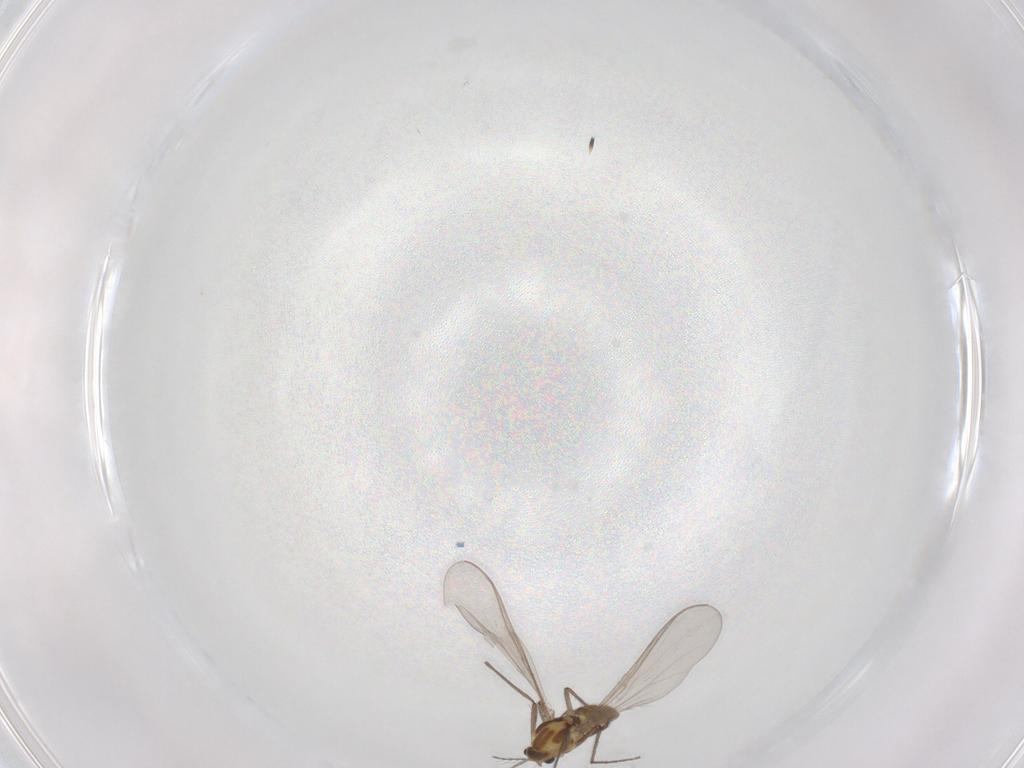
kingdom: Animalia
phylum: Arthropoda
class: Insecta
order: Diptera
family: Chironomidae
